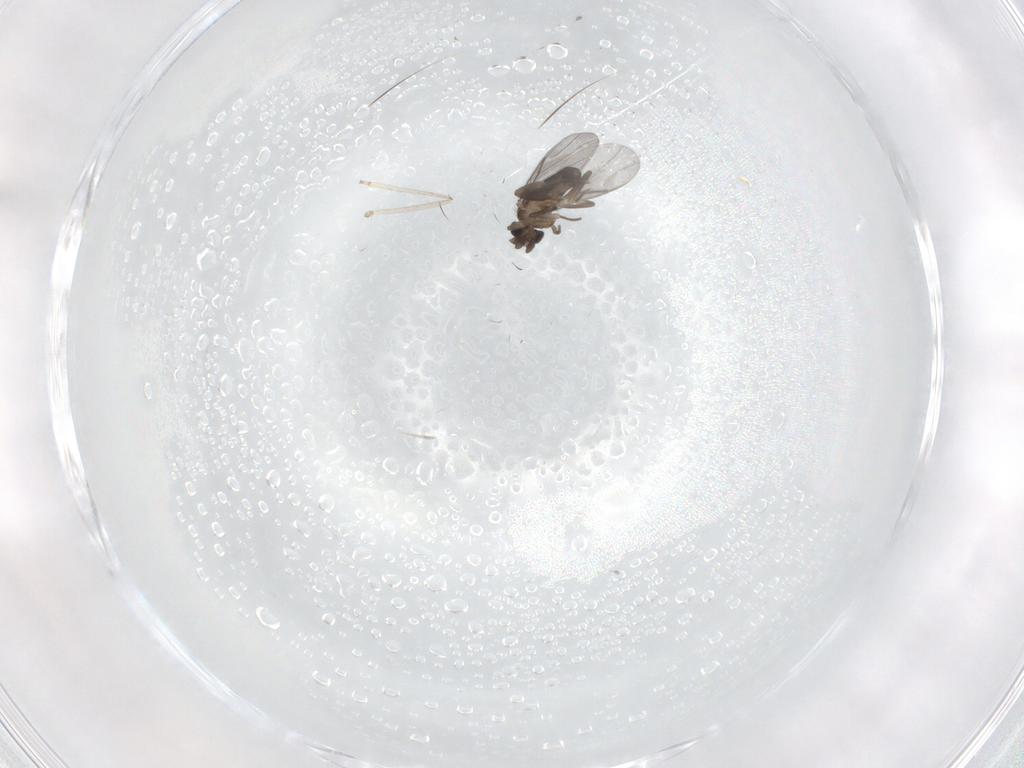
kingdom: Animalia
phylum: Arthropoda
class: Insecta
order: Diptera
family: Cecidomyiidae
